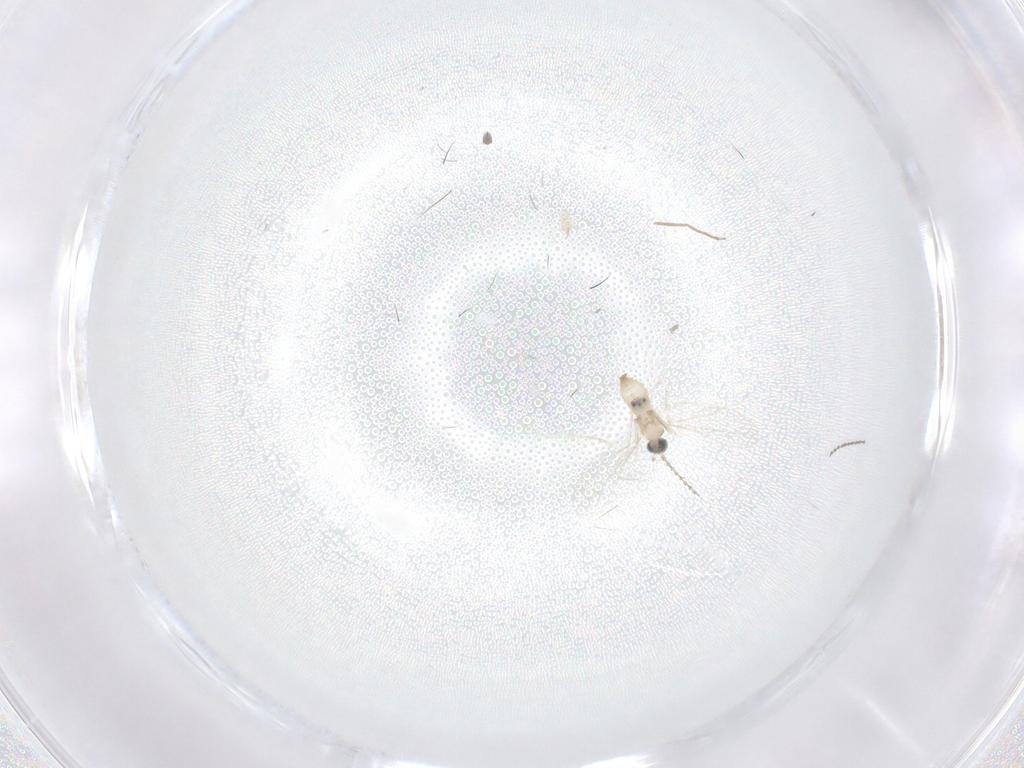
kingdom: Animalia
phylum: Arthropoda
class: Insecta
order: Diptera
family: Cecidomyiidae
